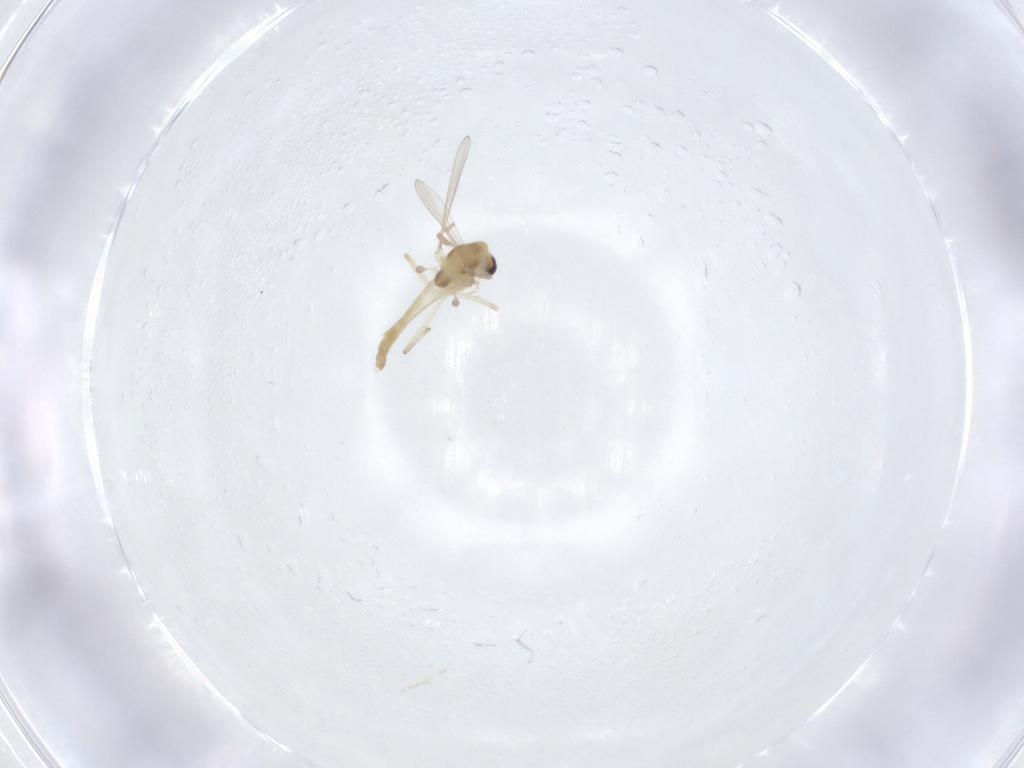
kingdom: Animalia
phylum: Arthropoda
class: Insecta
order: Diptera
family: Chironomidae
